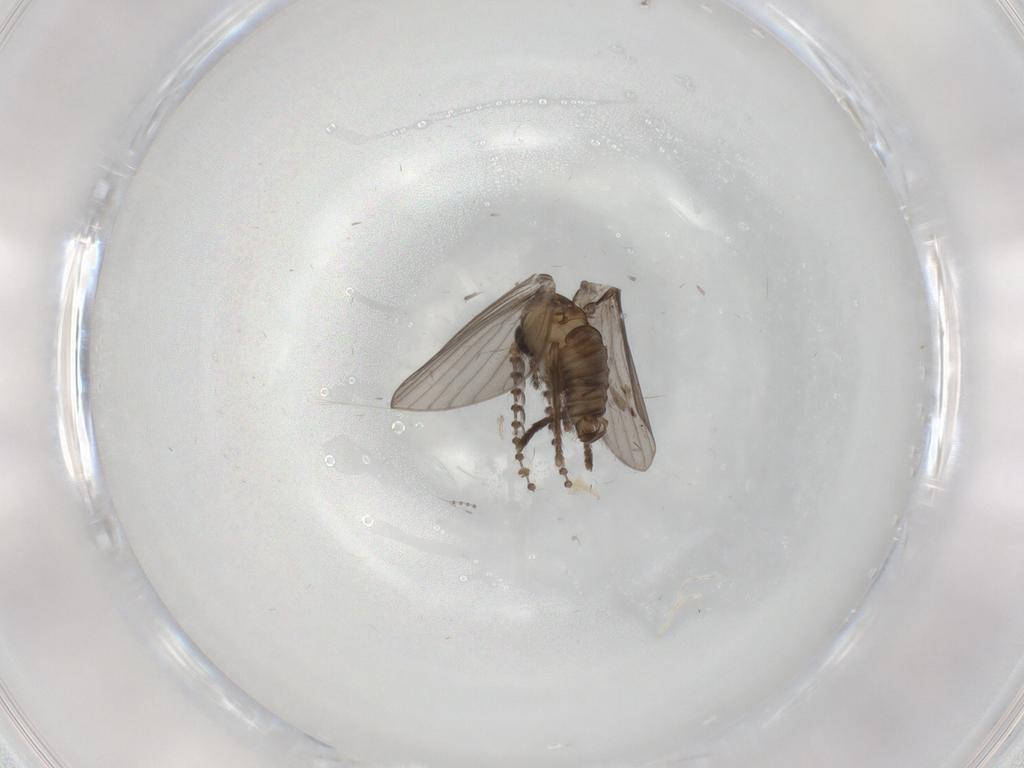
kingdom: Animalia
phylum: Arthropoda
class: Insecta
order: Diptera
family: Psychodidae
